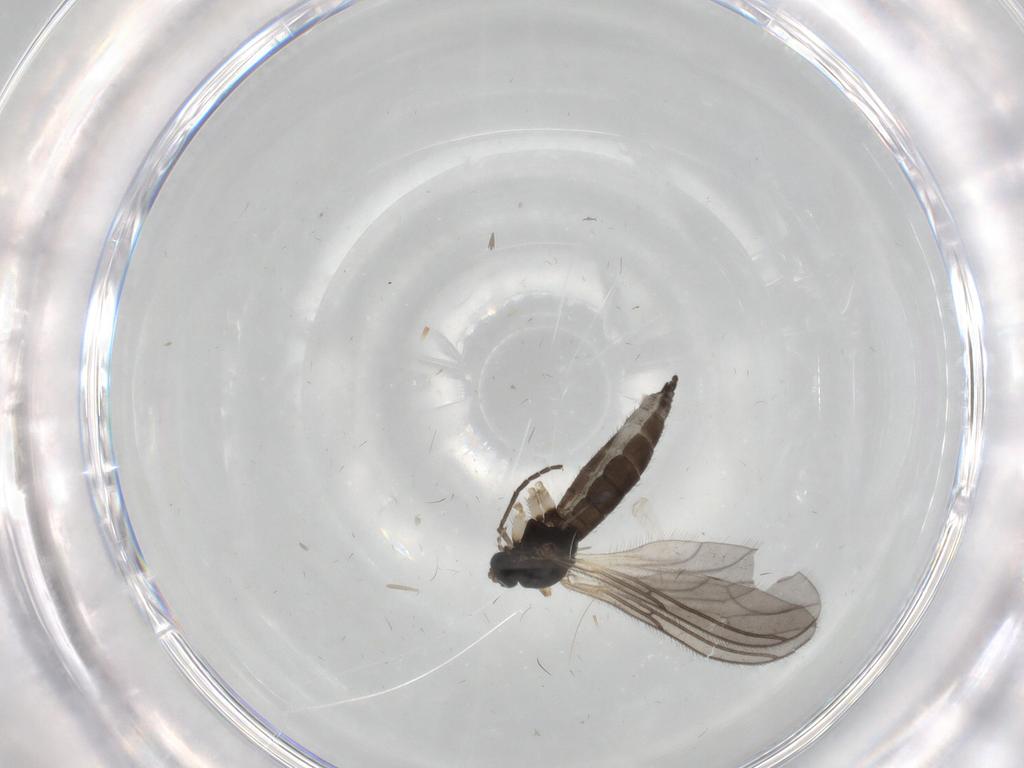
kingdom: Animalia
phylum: Arthropoda
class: Insecta
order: Diptera
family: Sciaridae
